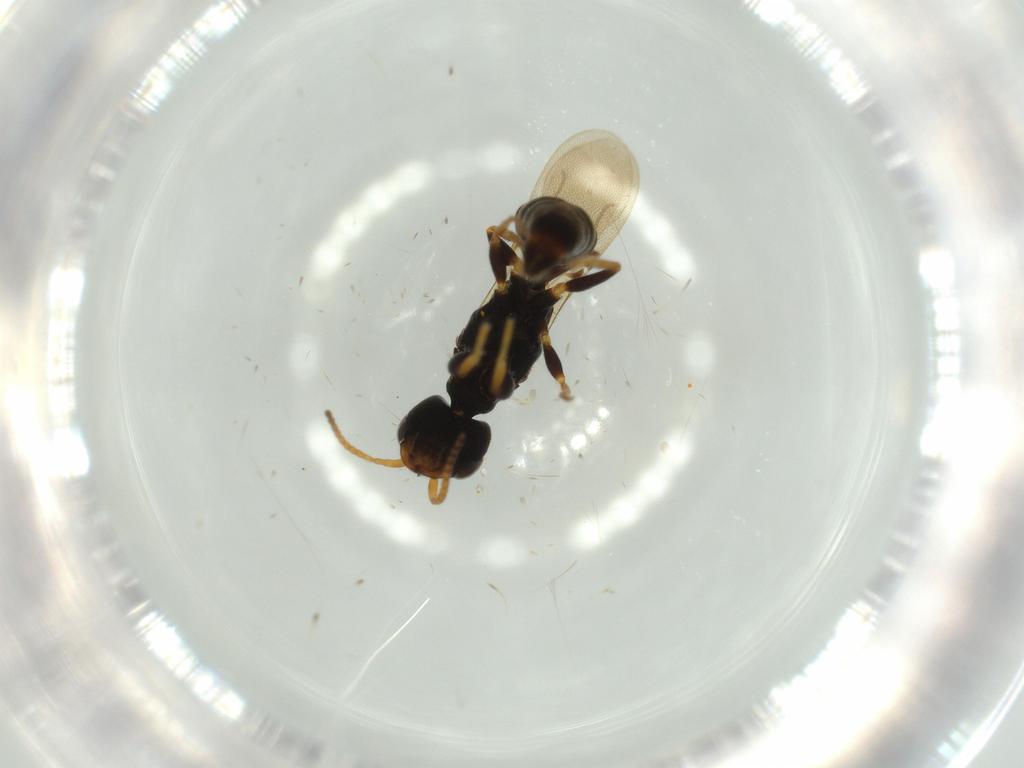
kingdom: Animalia
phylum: Arthropoda
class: Insecta
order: Hymenoptera
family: Bethylidae
